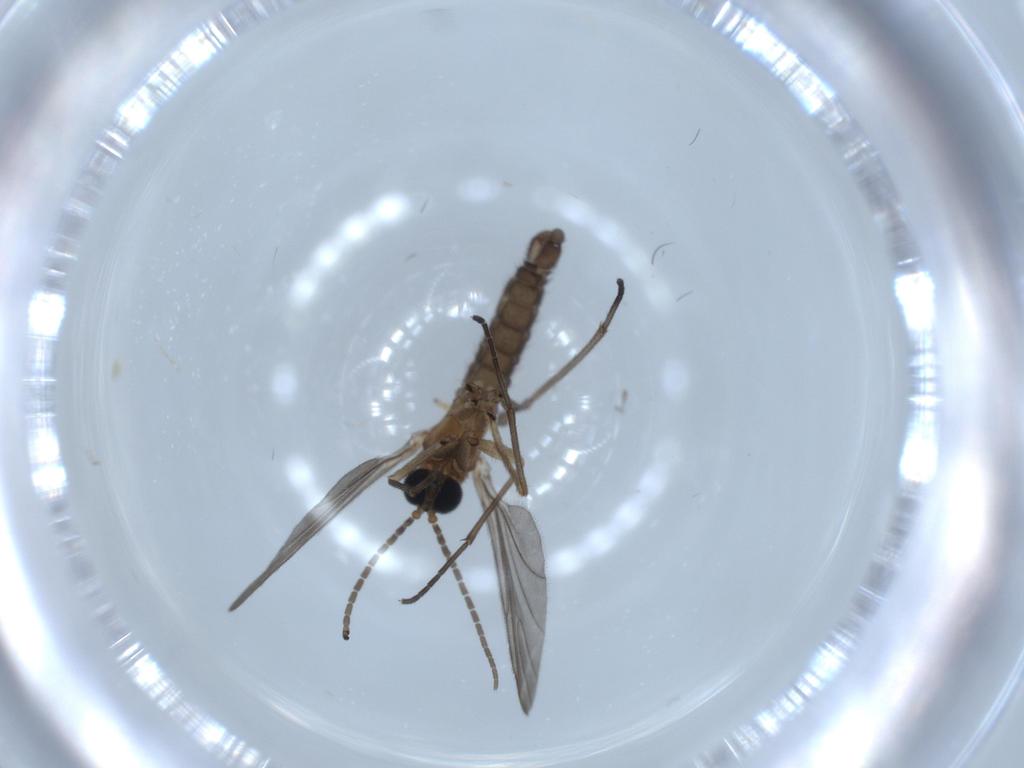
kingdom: Animalia
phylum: Arthropoda
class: Insecta
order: Diptera
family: Sciaridae
